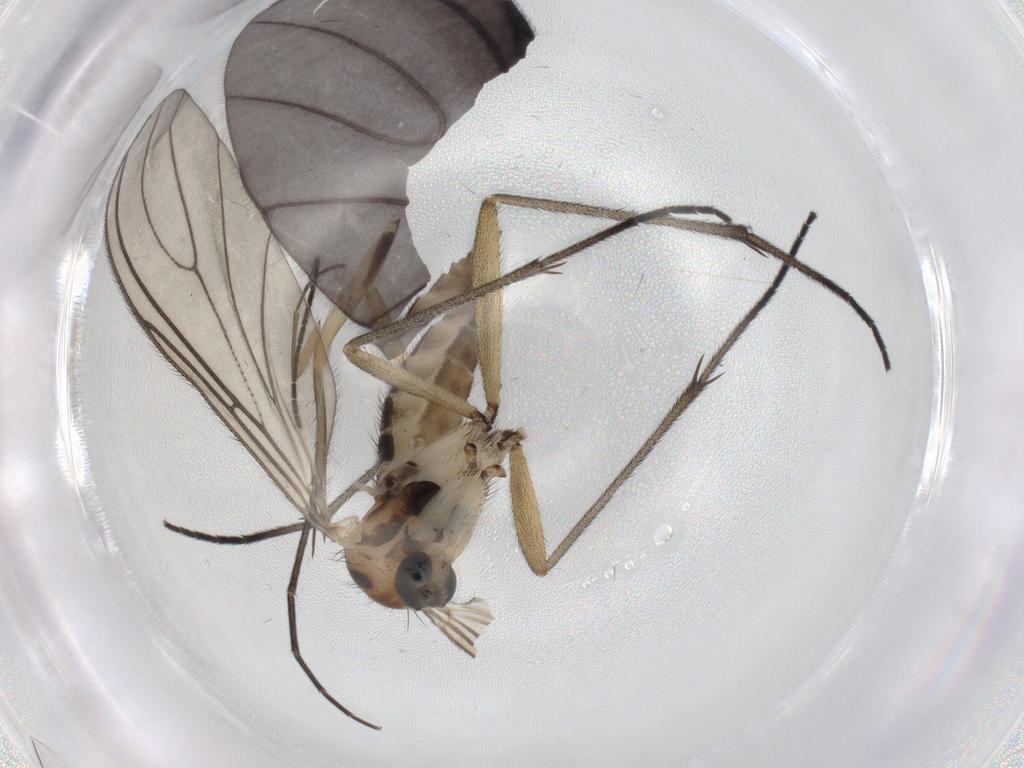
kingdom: Animalia
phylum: Arthropoda
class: Insecta
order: Diptera
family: Sciaridae
